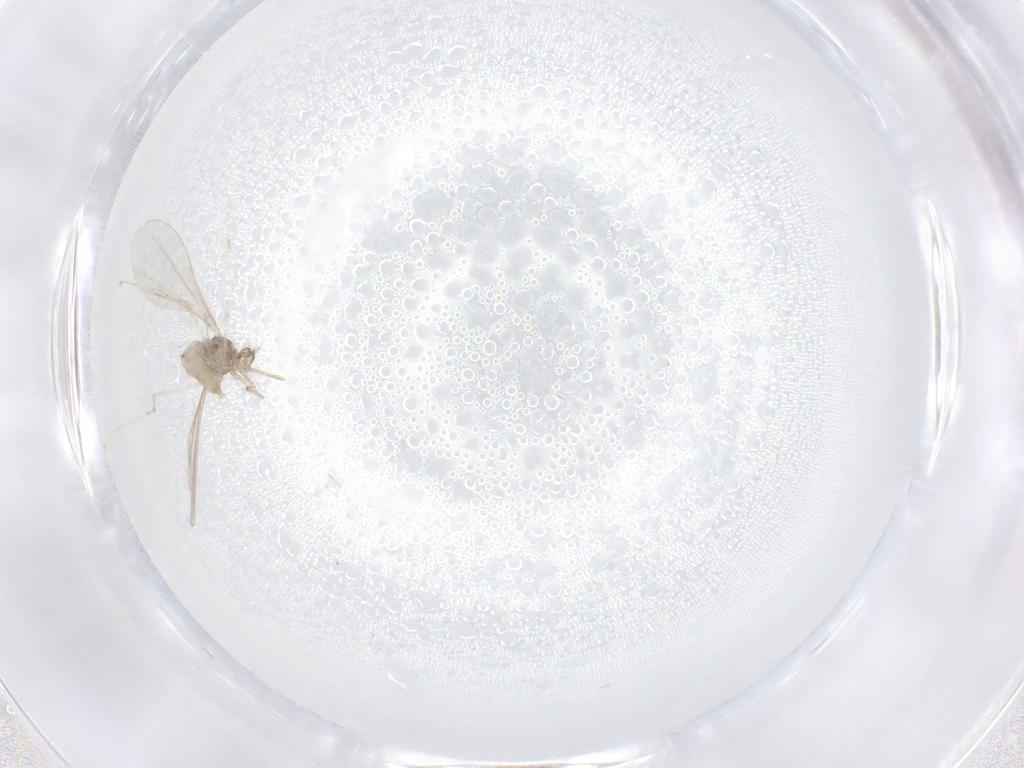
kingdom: Animalia
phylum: Arthropoda
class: Insecta
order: Diptera
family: Cecidomyiidae
